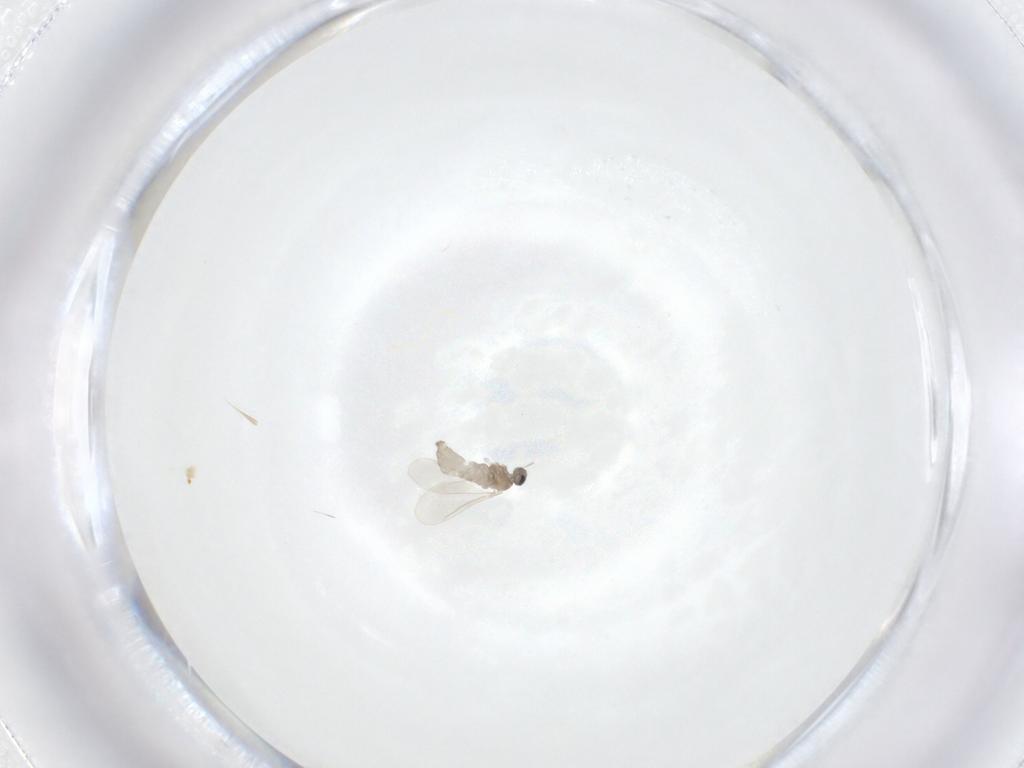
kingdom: Animalia
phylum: Arthropoda
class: Insecta
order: Diptera
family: Cecidomyiidae
